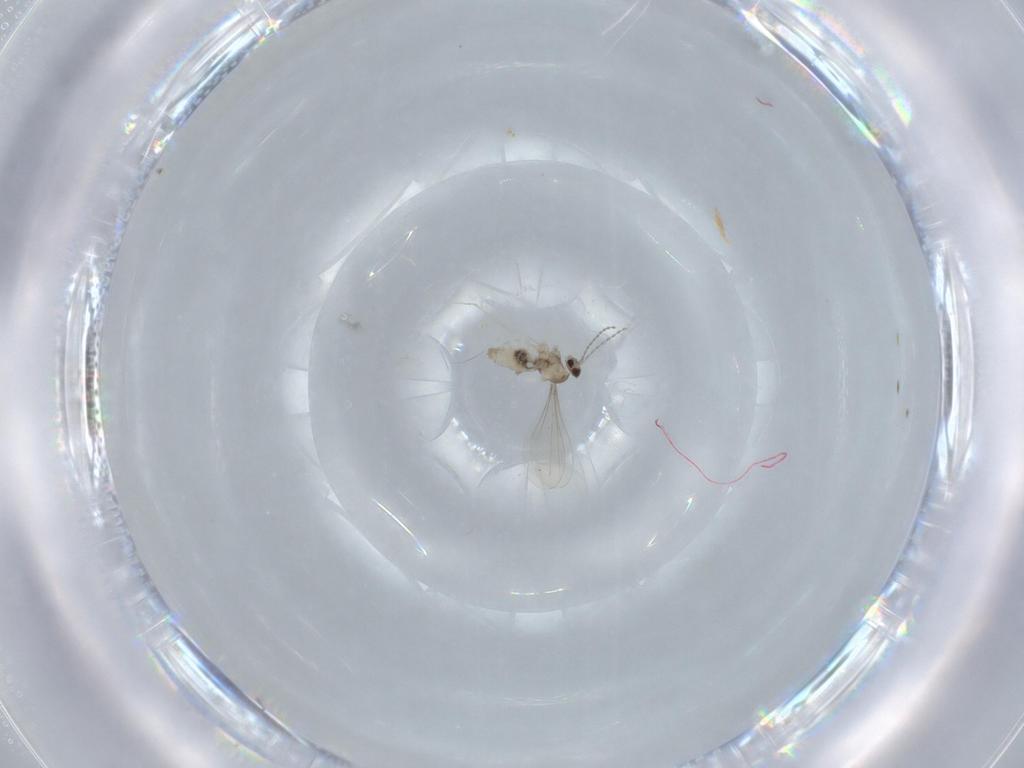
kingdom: Animalia
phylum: Arthropoda
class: Insecta
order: Diptera
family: Cecidomyiidae
